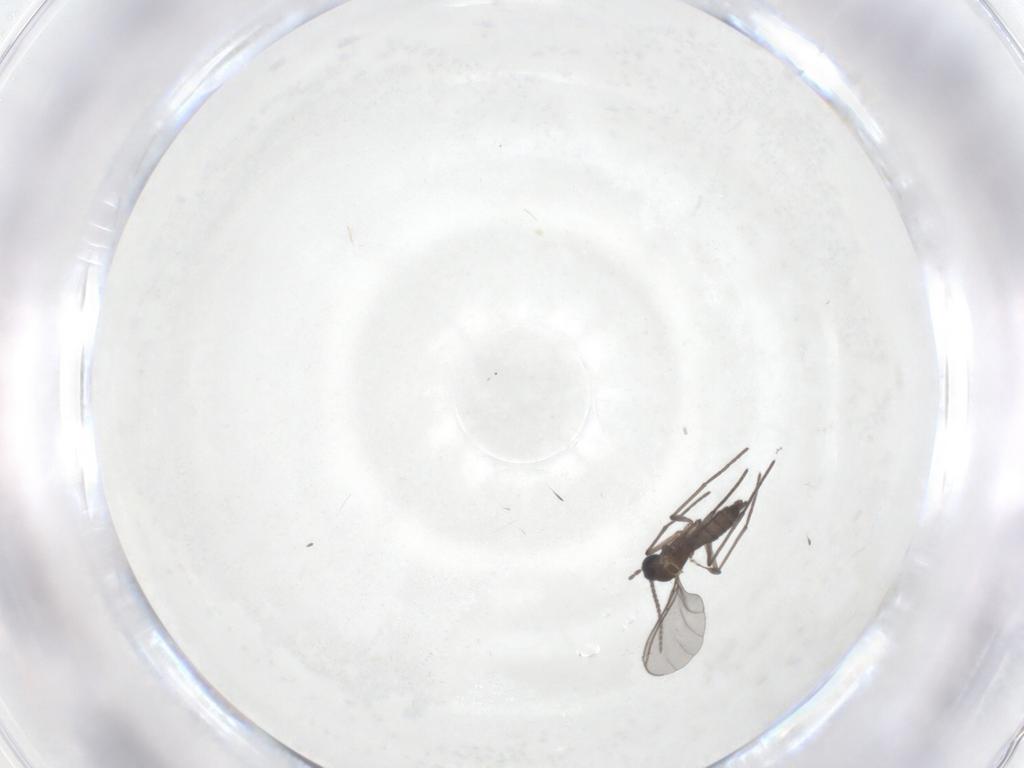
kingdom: Animalia
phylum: Arthropoda
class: Insecta
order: Diptera
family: Cecidomyiidae
